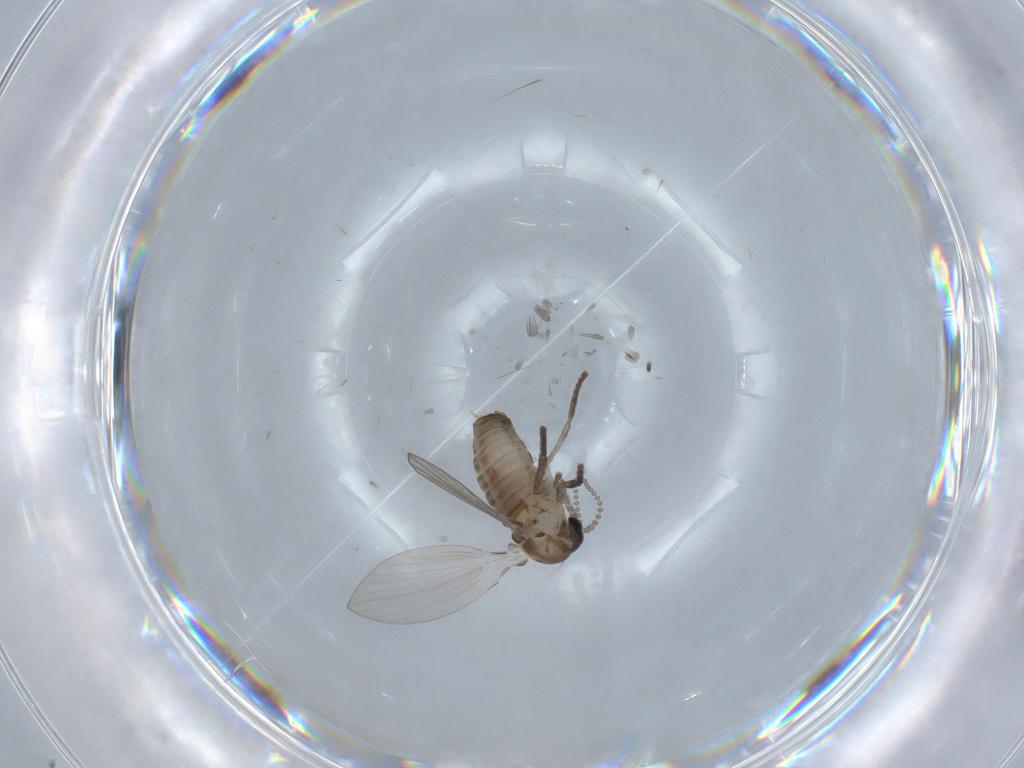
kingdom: Animalia
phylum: Arthropoda
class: Insecta
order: Diptera
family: Psychodidae
